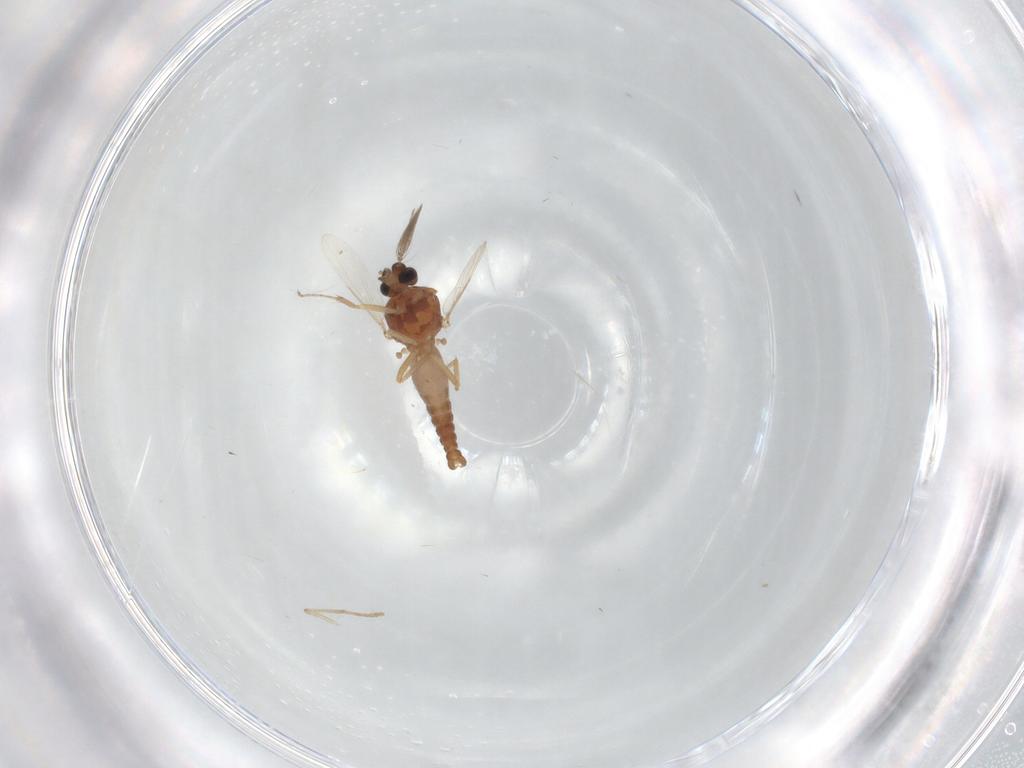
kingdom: Animalia
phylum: Arthropoda
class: Insecta
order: Diptera
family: Ceratopogonidae
